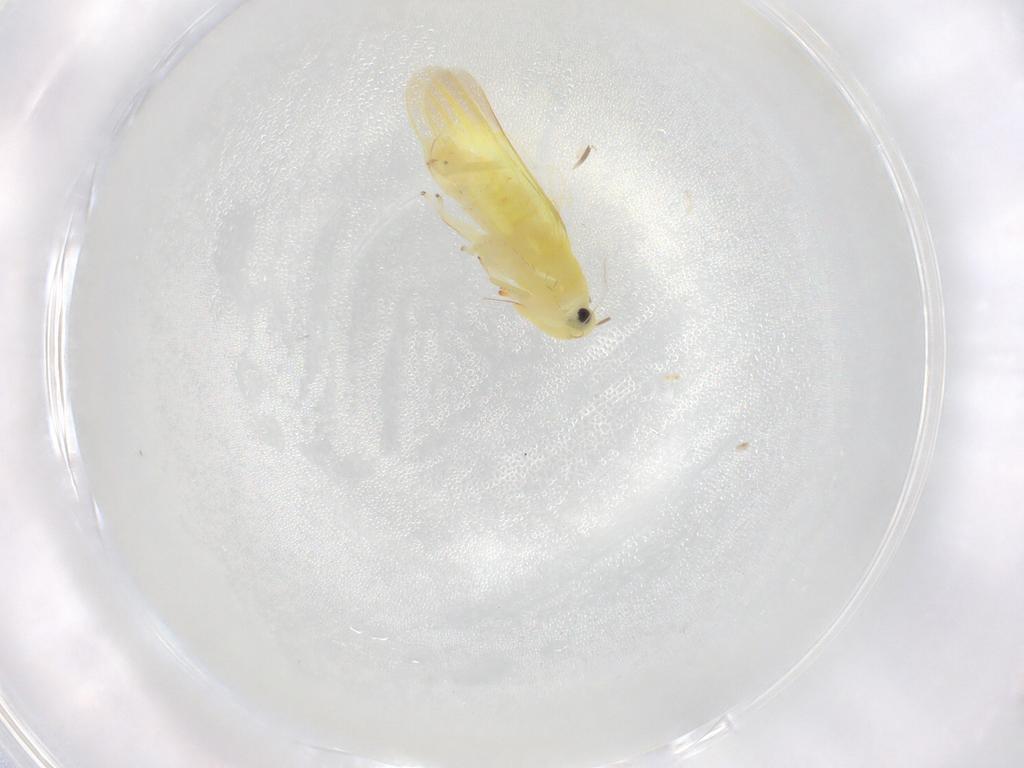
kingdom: Animalia
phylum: Arthropoda
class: Insecta
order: Hemiptera
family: Cicadellidae
